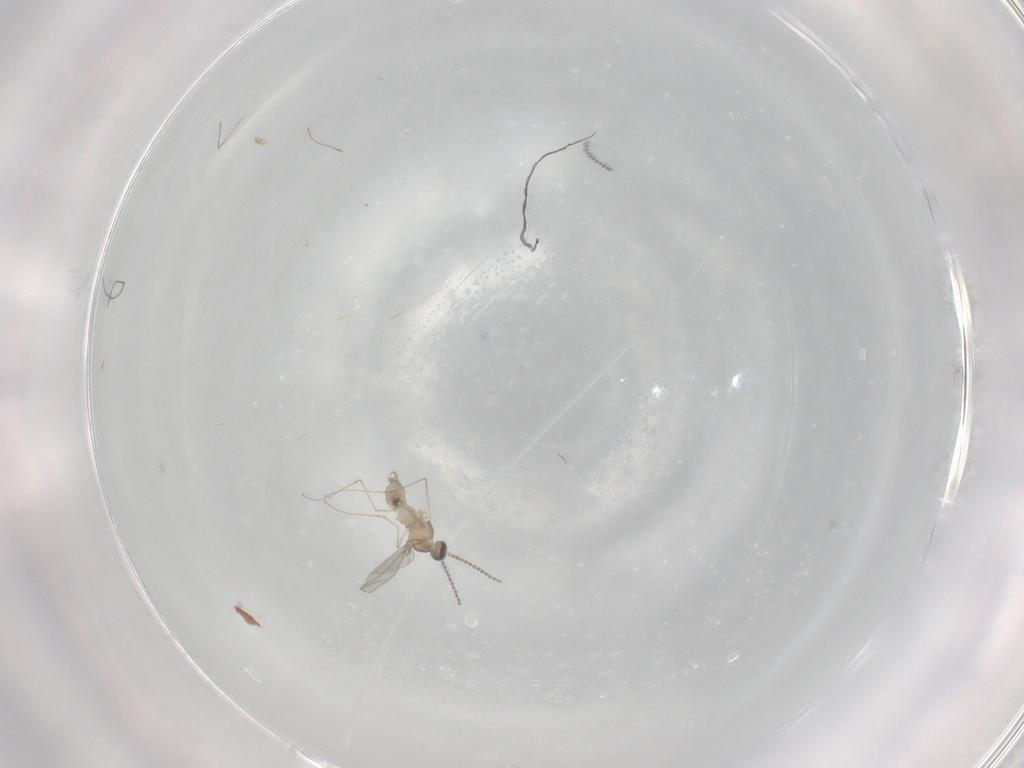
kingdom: Animalia
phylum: Arthropoda
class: Insecta
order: Diptera
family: Cecidomyiidae
